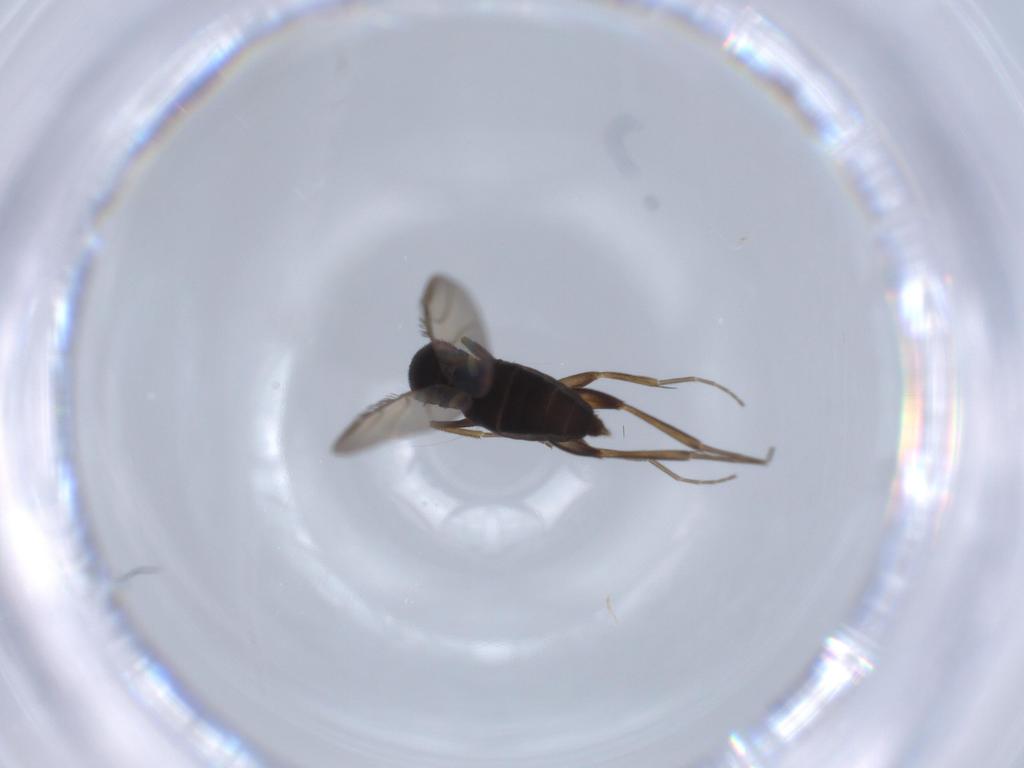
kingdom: Animalia
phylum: Arthropoda
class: Insecta
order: Diptera
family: Phoridae
